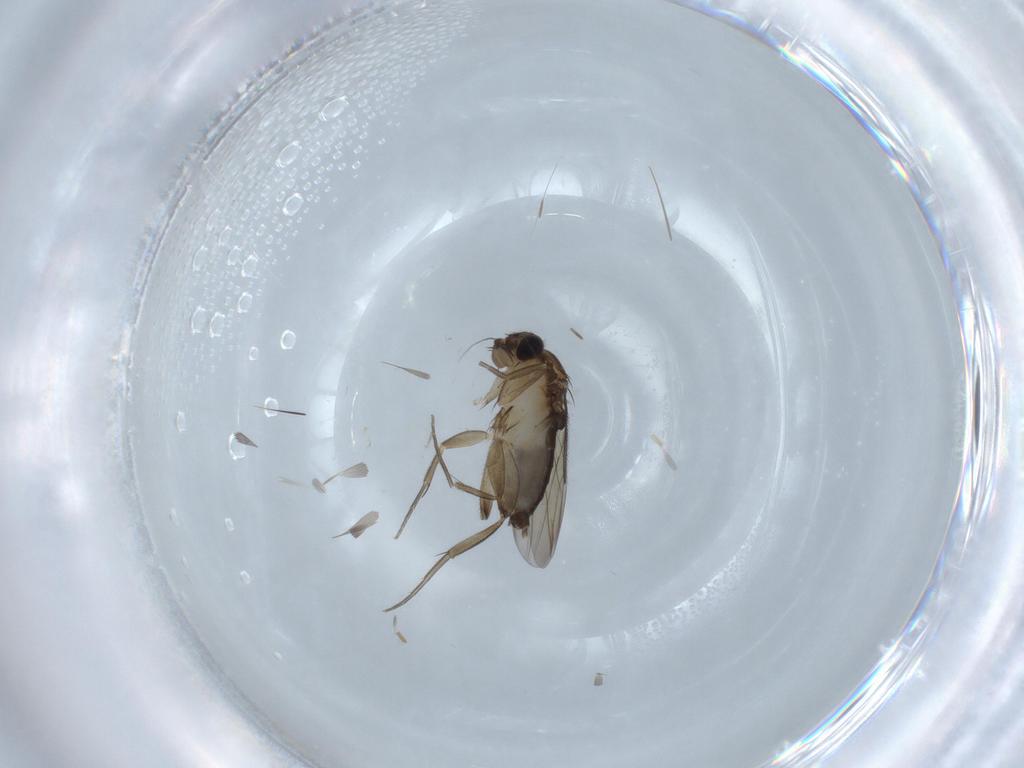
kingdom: Animalia
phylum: Arthropoda
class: Insecta
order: Diptera
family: Phoridae
